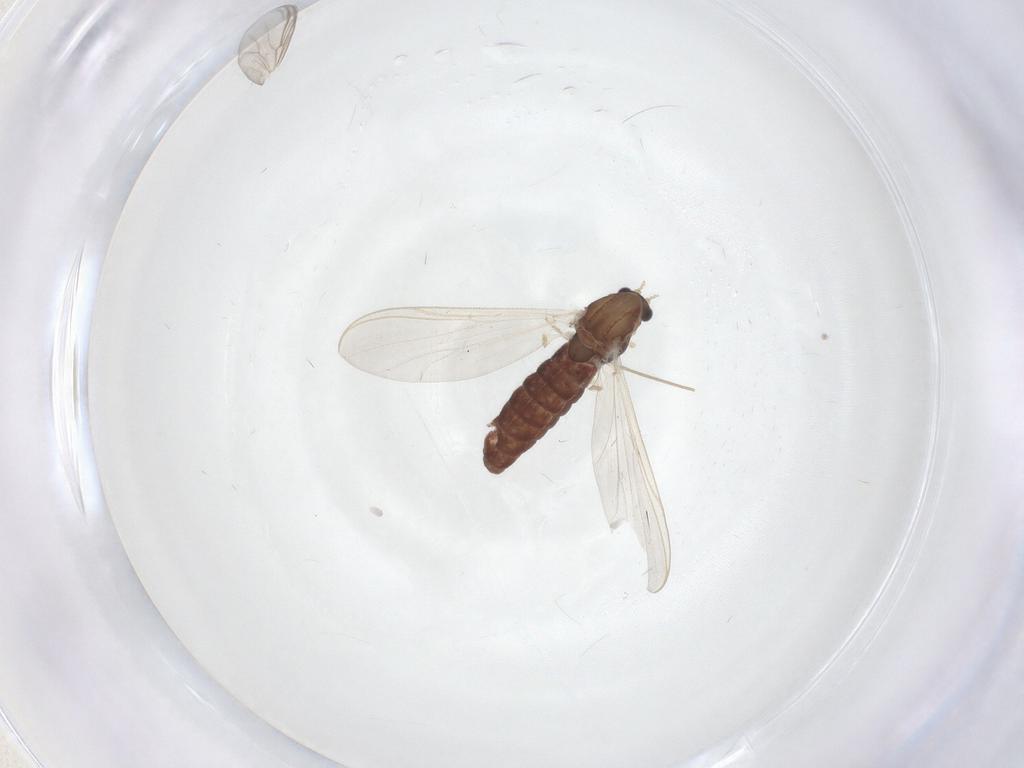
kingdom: Animalia
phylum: Arthropoda
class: Insecta
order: Diptera
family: Chironomidae
